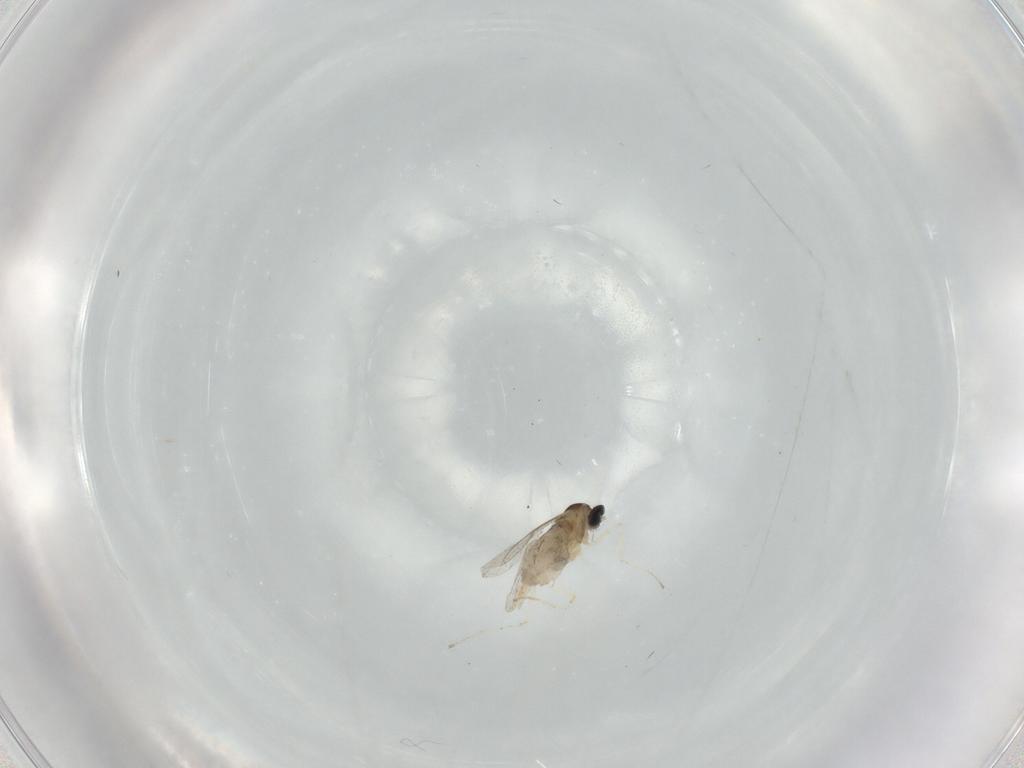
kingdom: Animalia
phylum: Arthropoda
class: Insecta
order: Diptera
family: Cecidomyiidae
